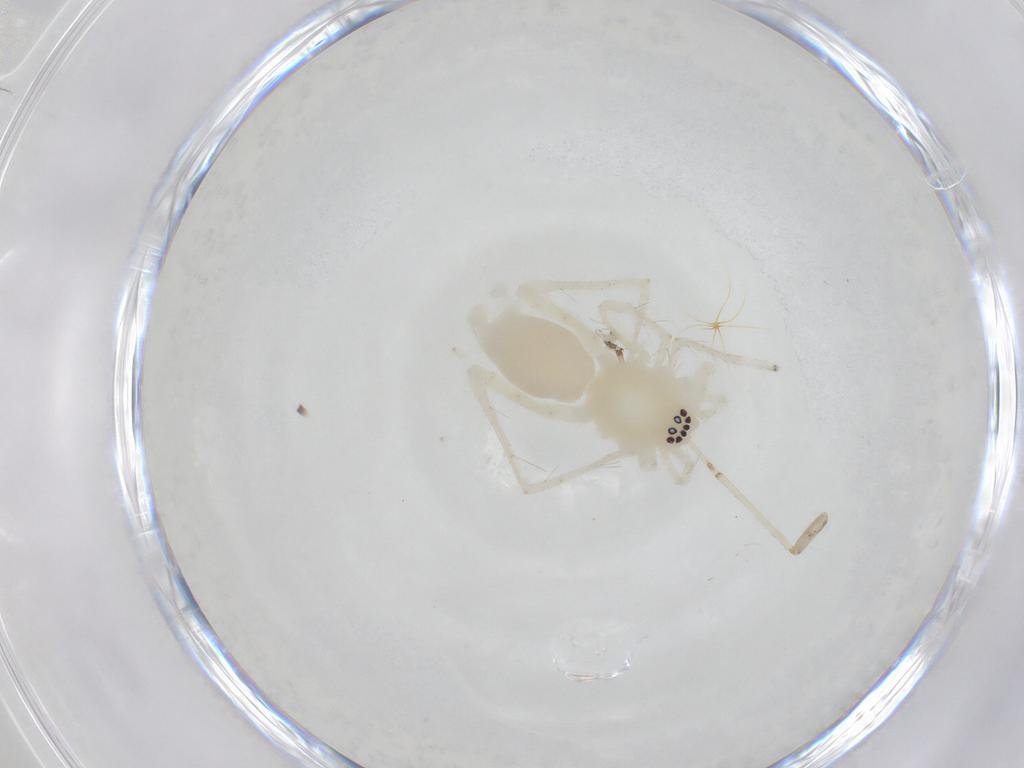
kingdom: Animalia
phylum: Arthropoda
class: Arachnida
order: Araneae
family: Anyphaenidae
